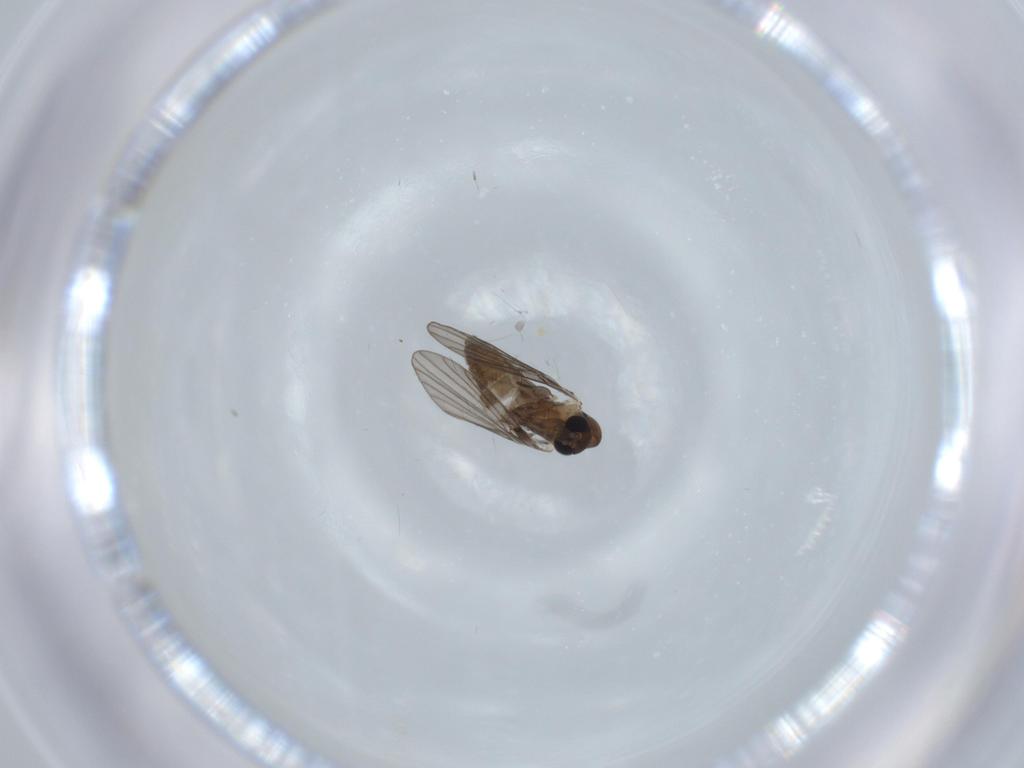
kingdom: Animalia
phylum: Arthropoda
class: Insecta
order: Diptera
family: Psychodidae
